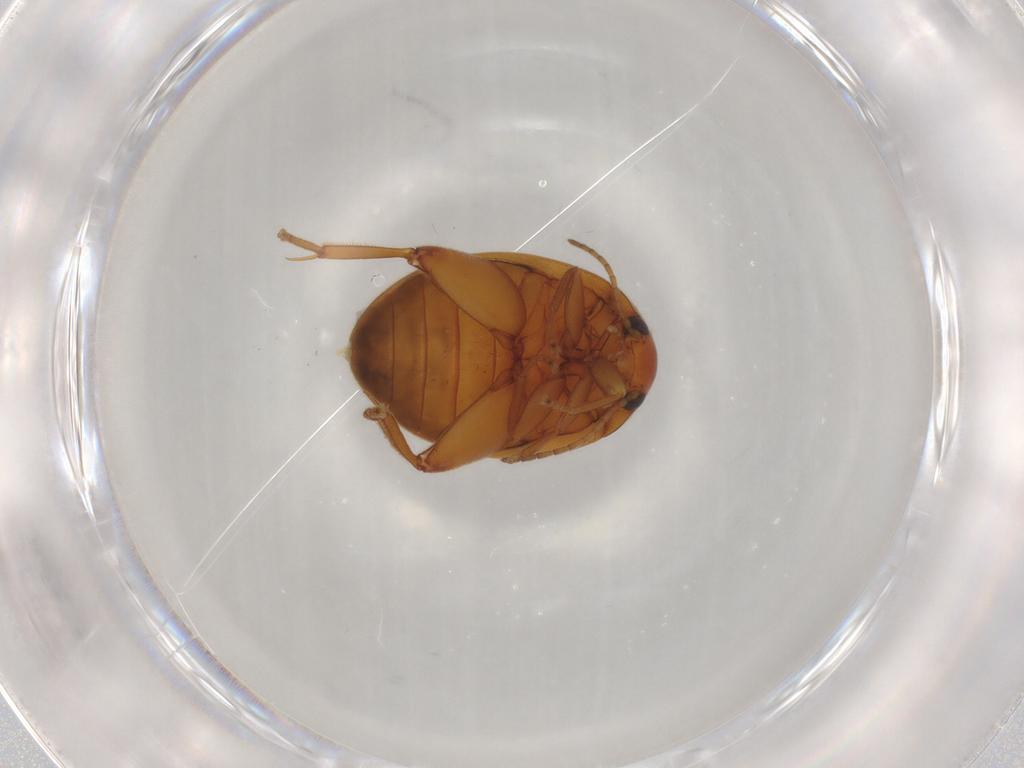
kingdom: Animalia
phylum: Arthropoda
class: Insecta
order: Coleoptera
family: Scirtidae
